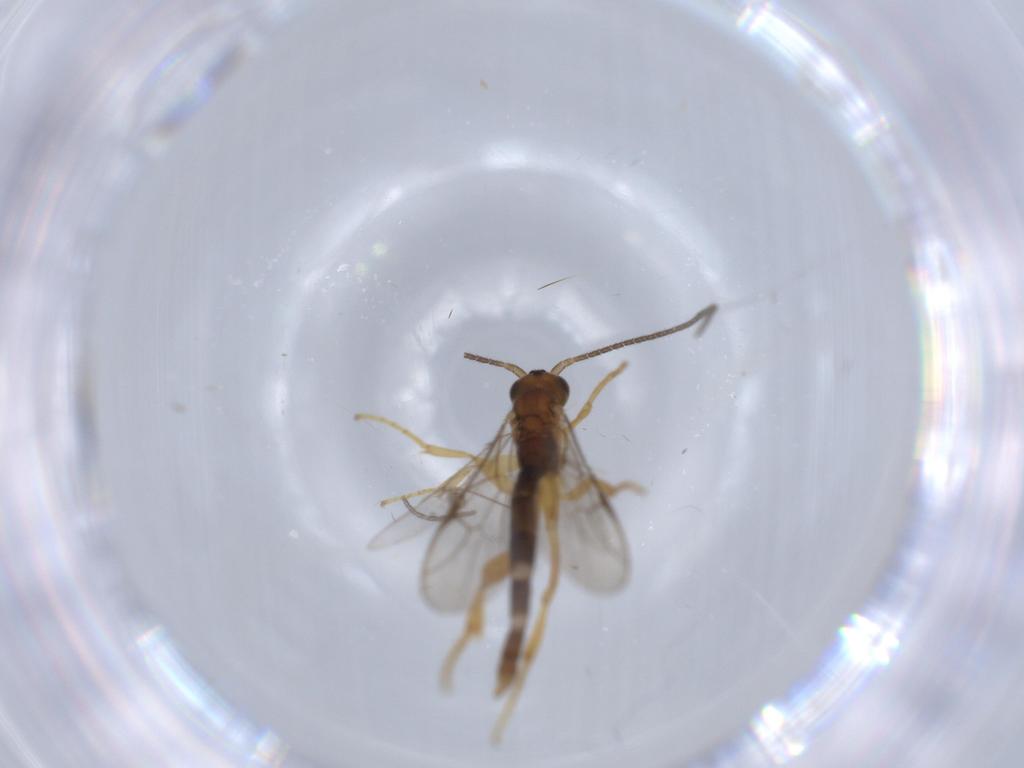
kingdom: Animalia
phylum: Arthropoda
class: Insecta
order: Hymenoptera
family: Ichneumonidae
